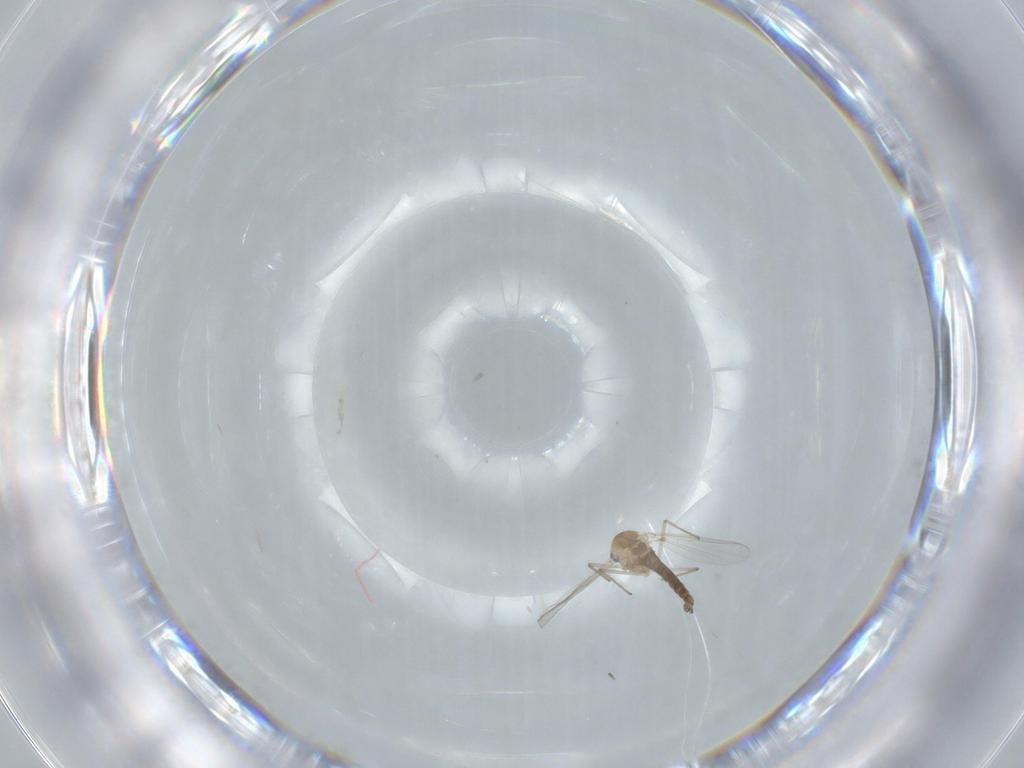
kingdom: Animalia
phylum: Arthropoda
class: Insecta
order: Diptera
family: Chironomidae
